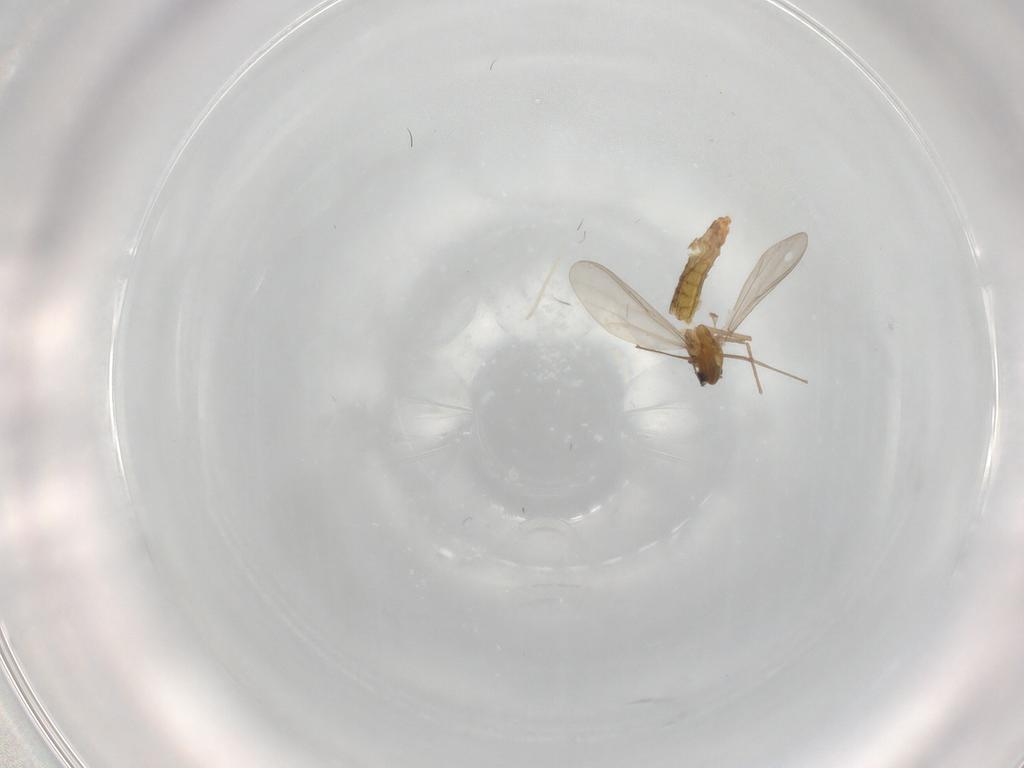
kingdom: Animalia
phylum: Arthropoda
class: Insecta
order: Diptera
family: Chironomidae
